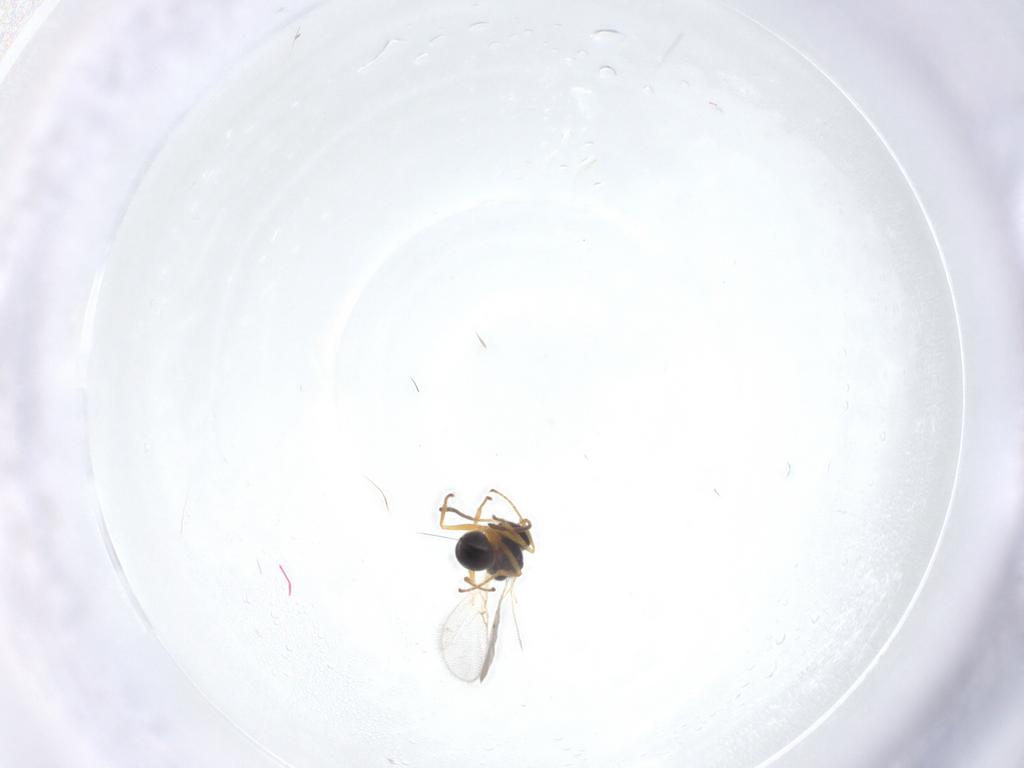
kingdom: Animalia
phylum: Arthropoda
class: Insecta
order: Hymenoptera
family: Figitidae
